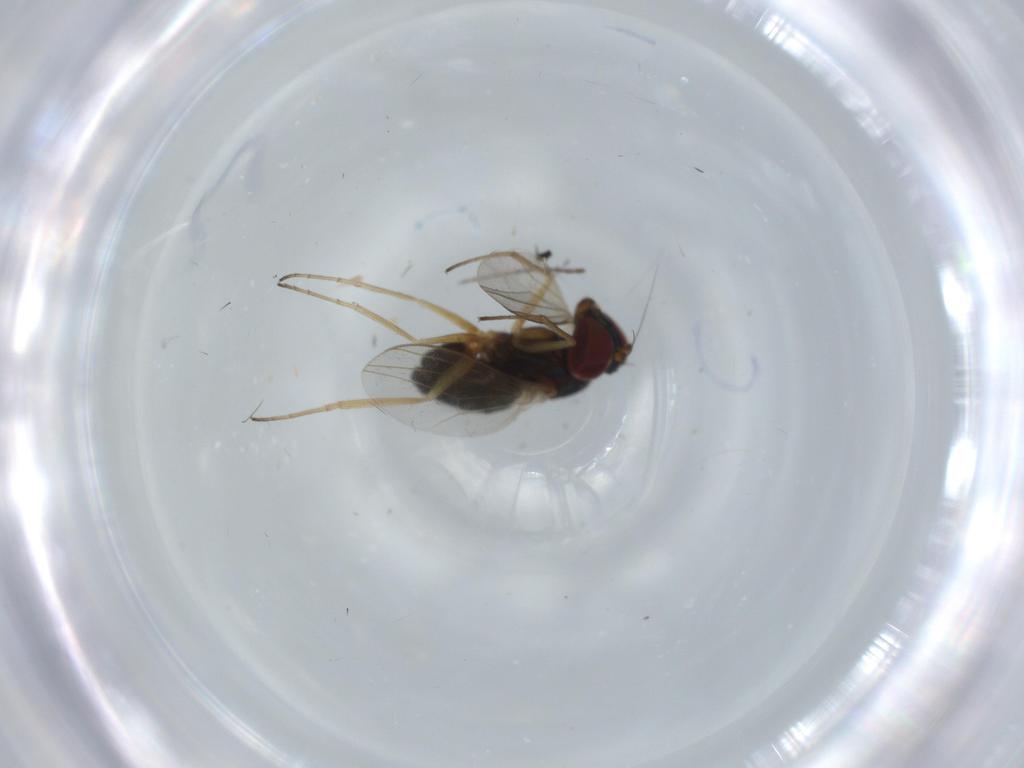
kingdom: Animalia
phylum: Arthropoda
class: Insecta
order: Diptera
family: Dolichopodidae
